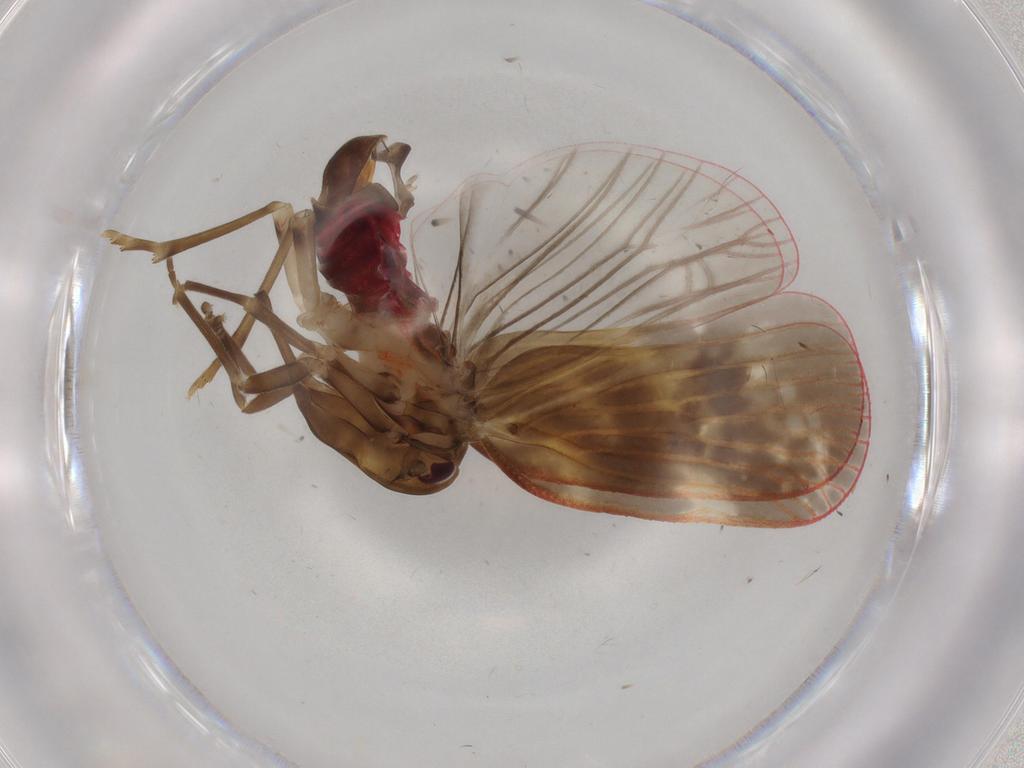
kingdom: Animalia
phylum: Arthropoda
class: Insecta
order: Hemiptera
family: Achilidae
